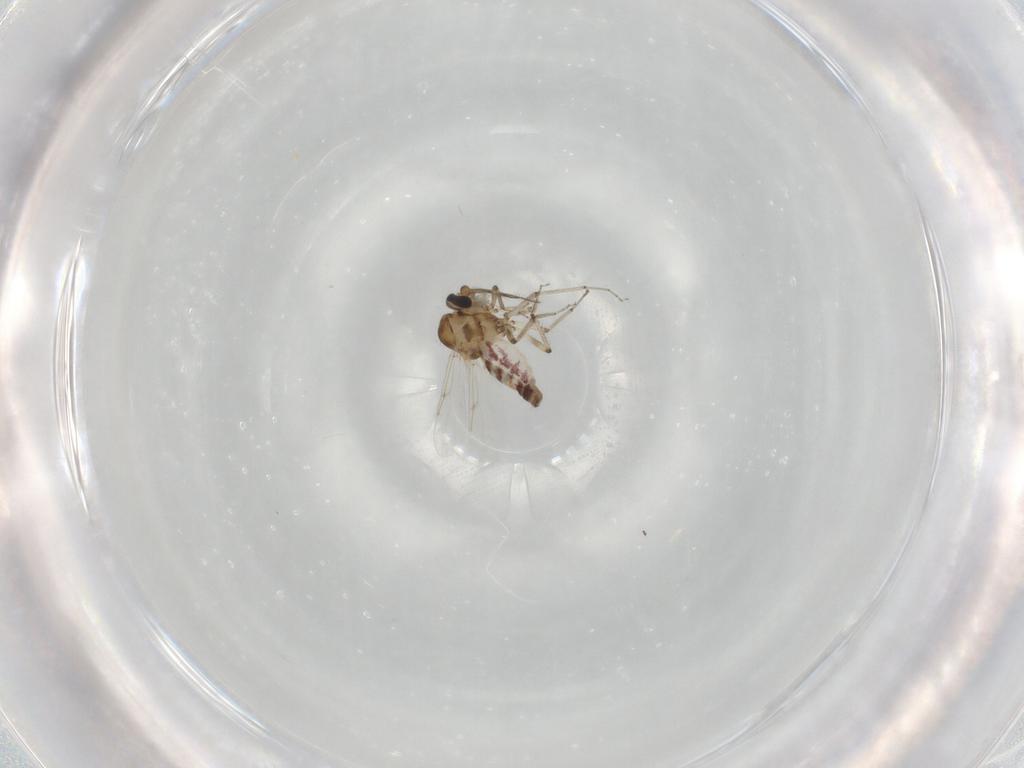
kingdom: Animalia
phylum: Arthropoda
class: Insecta
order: Diptera
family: Ceratopogonidae
